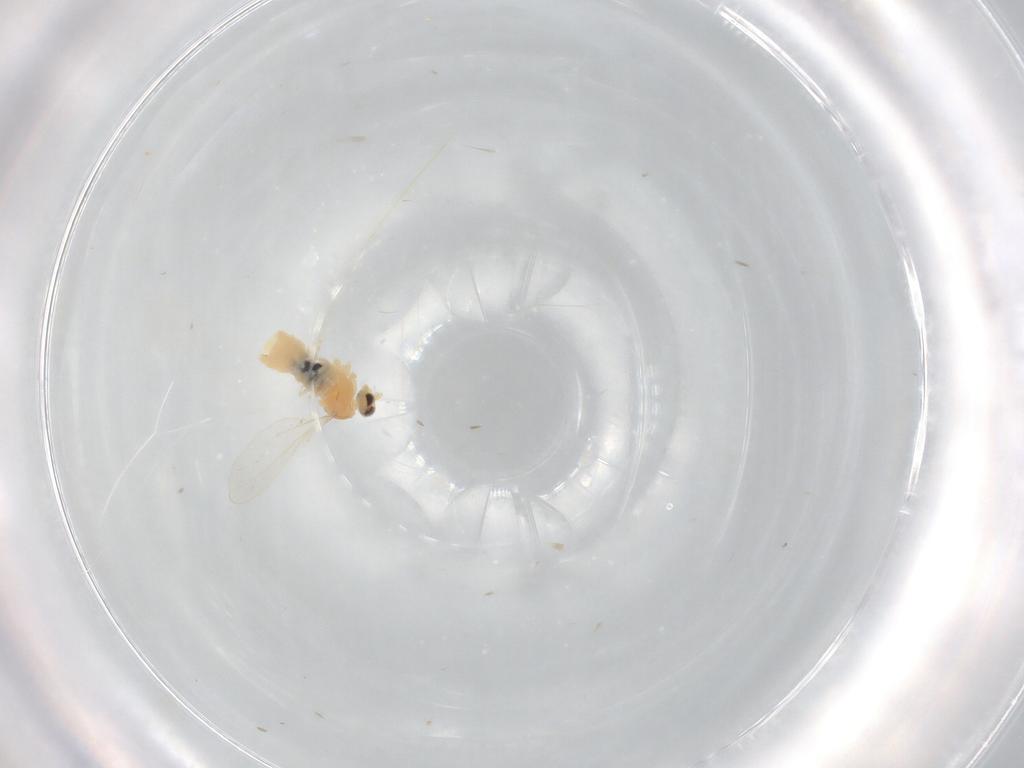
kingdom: Animalia
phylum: Arthropoda
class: Insecta
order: Diptera
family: Cecidomyiidae
